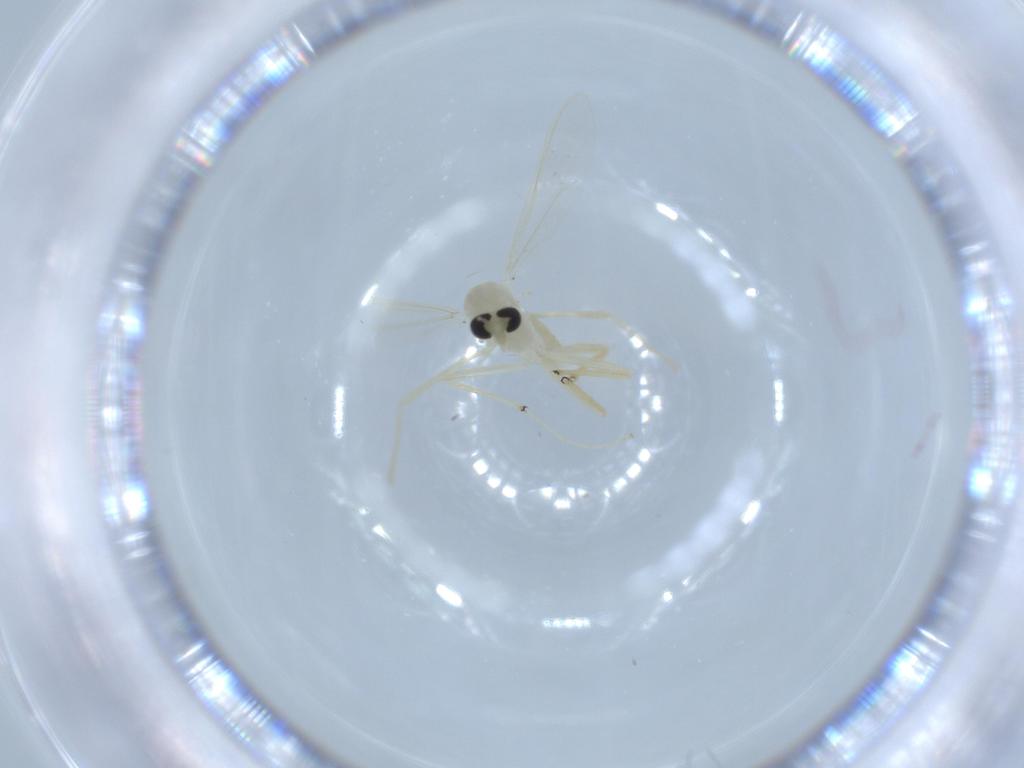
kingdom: Animalia
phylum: Arthropoda
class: Insecta
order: Diptera
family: Chironomidae
